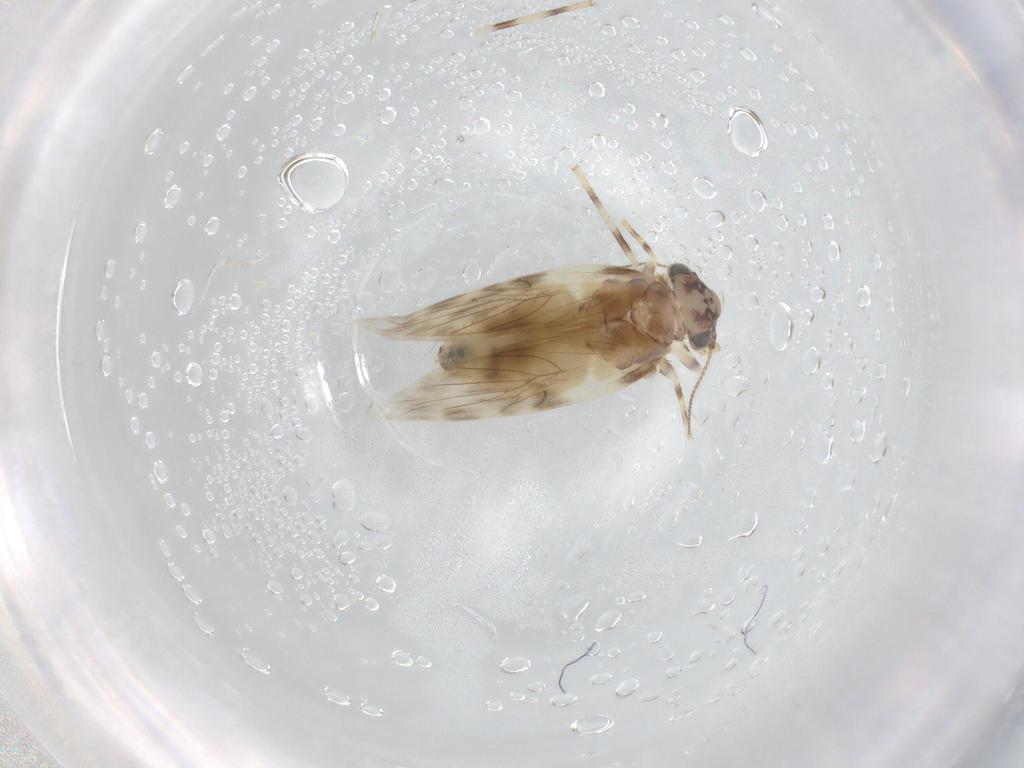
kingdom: Animalia
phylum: Arthropoda
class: Insecta
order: Psocodea
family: Lepidopsocidae
